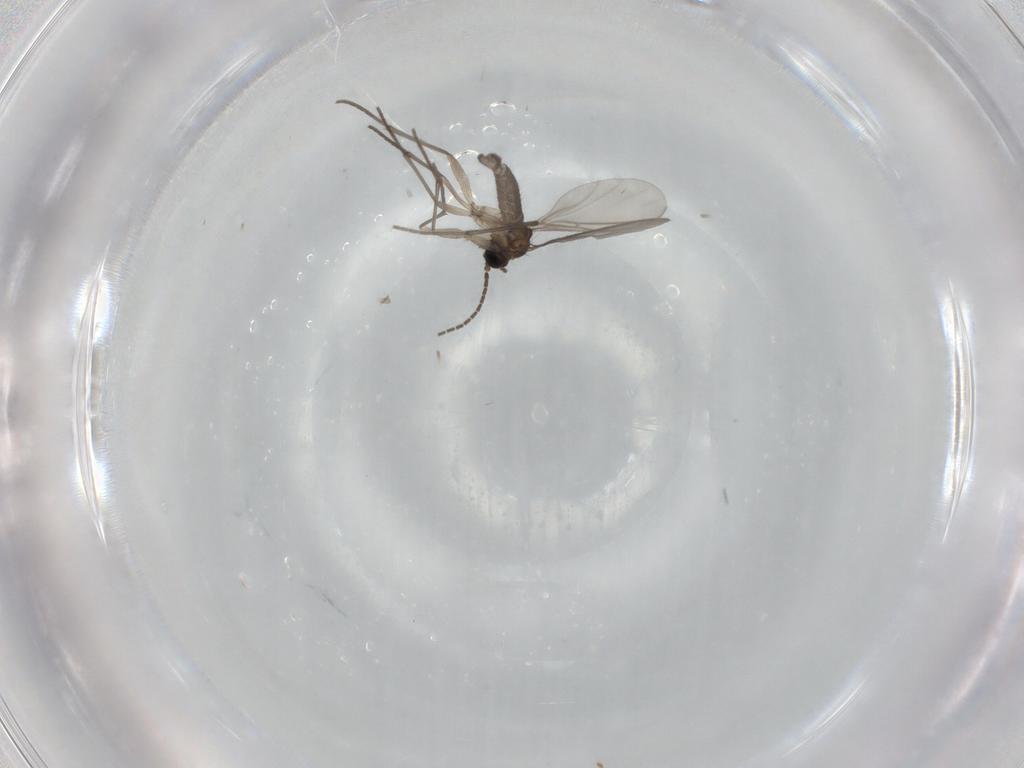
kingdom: Animalia
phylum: Arthropoda
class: Insecta
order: Diptera
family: Sciaridae
